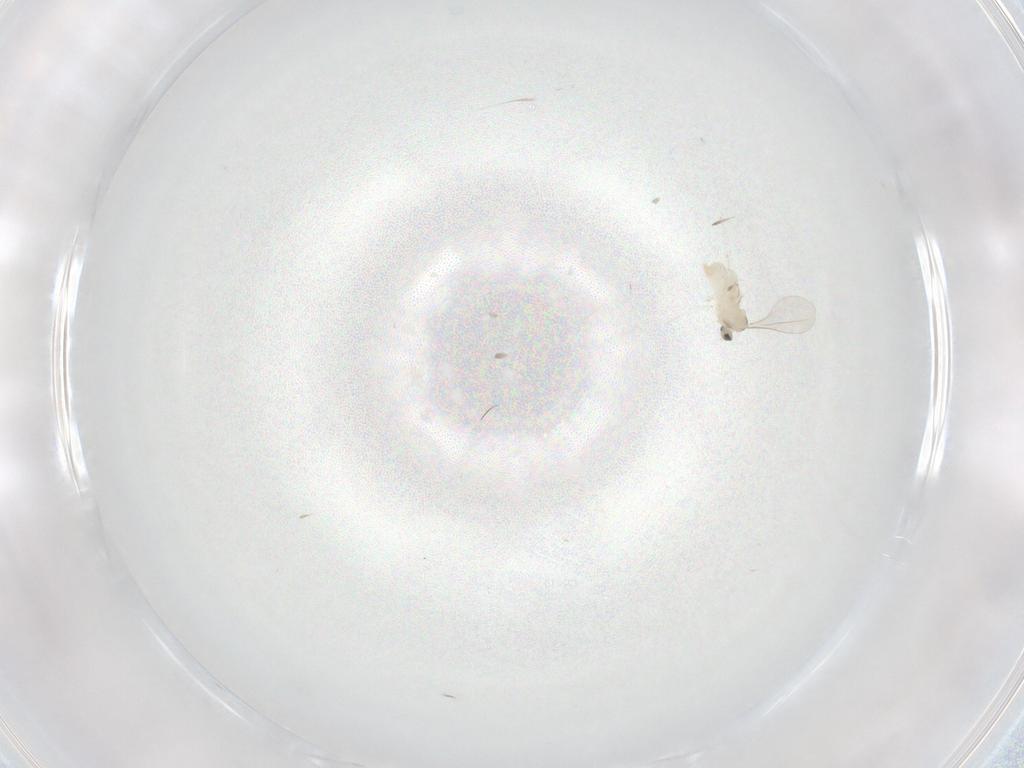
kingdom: Animalia
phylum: Arthropoda
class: Insecta
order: Diptera
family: Cecidomyiidae
